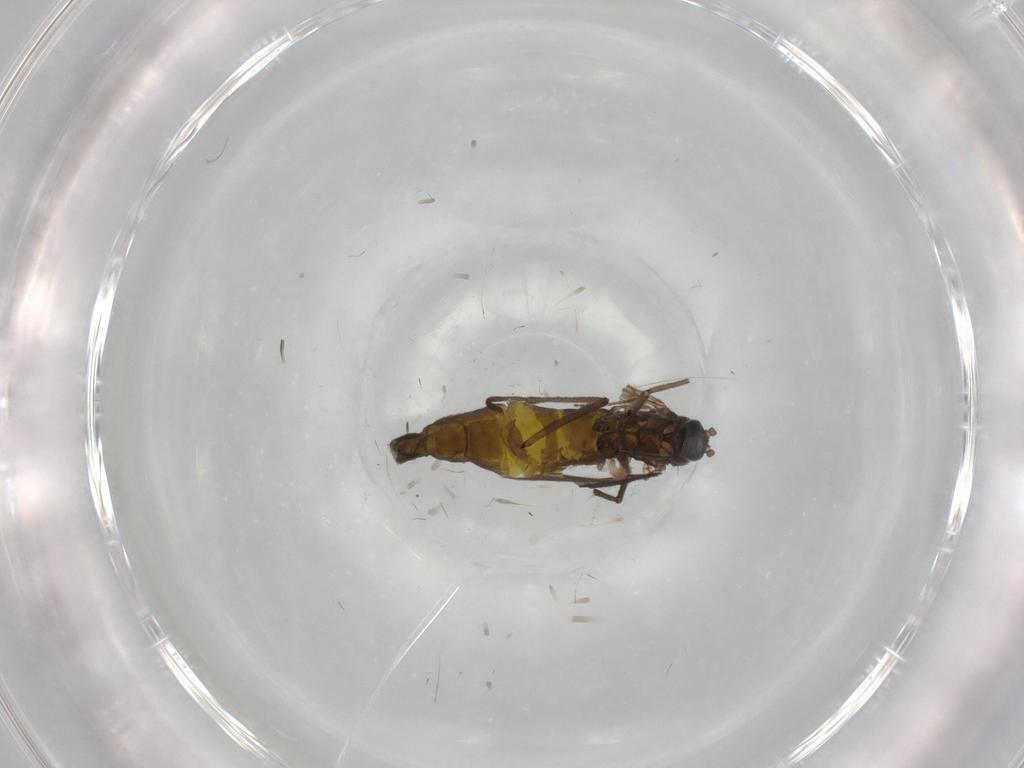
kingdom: Animalia
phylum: Arthropoda
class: Insecta
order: Diptera
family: Sciaridae
